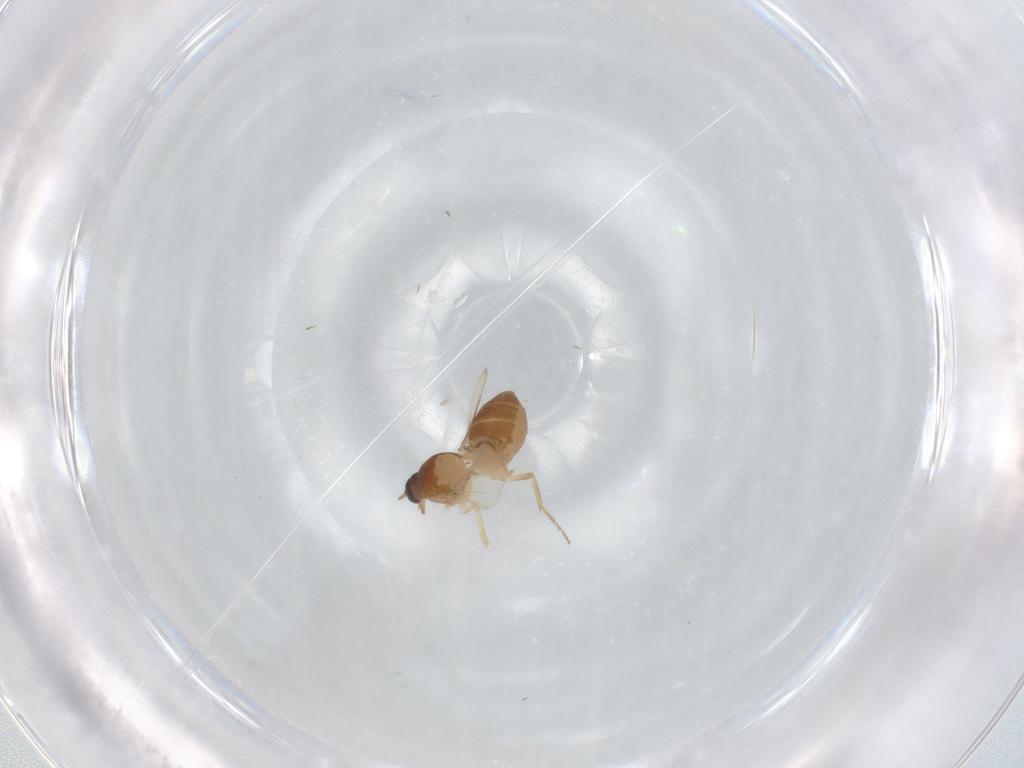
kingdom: Animalia
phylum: Arthropoda
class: Insecta
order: Diptera
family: Ceratopogonidae
